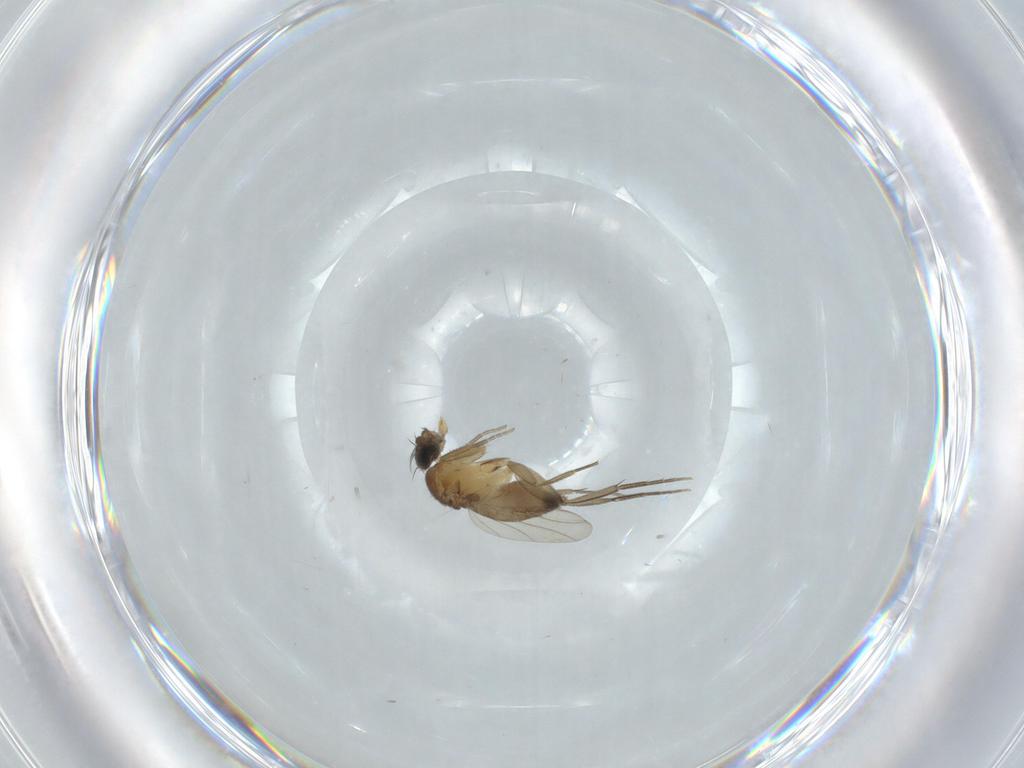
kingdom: Animalia
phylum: Arthropoda
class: Insecta
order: Diptera
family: Phoridae
